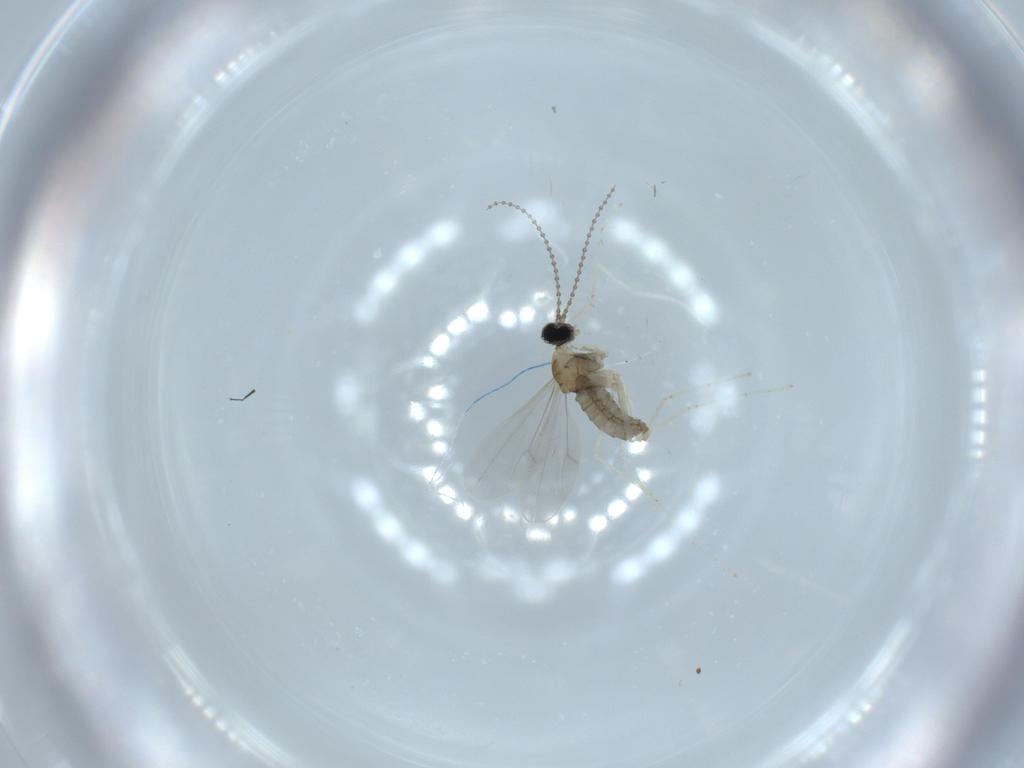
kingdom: Animalia
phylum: Arthropoda
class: Insecta
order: Diptera
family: Cecidomyiidae
